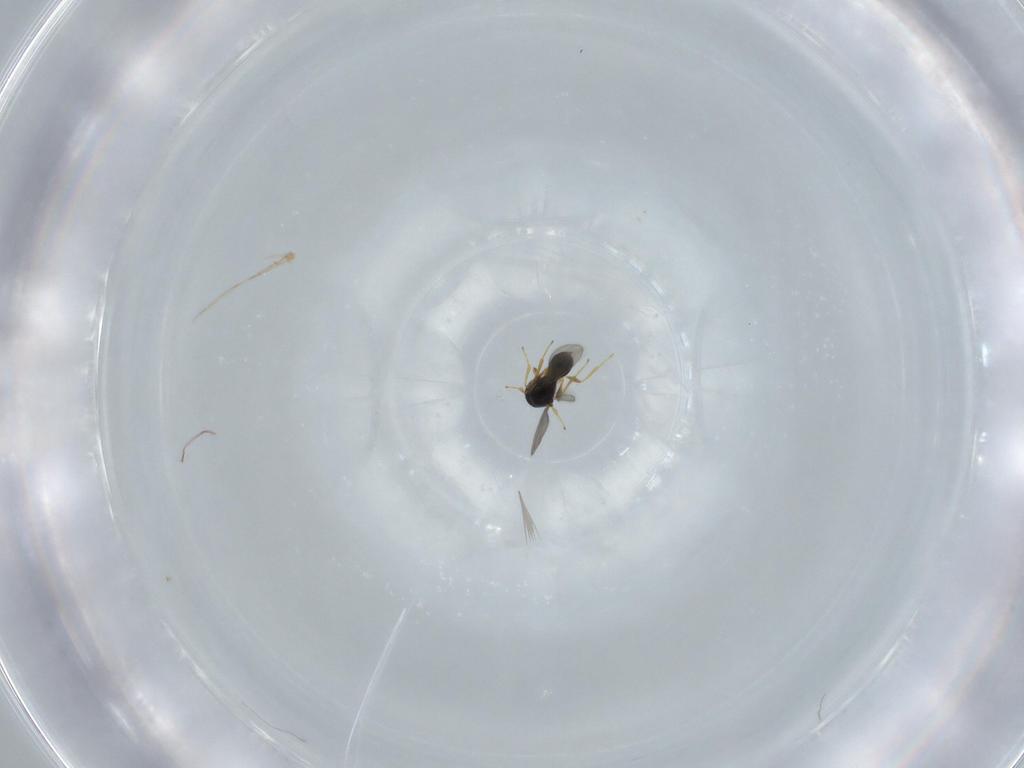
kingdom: Animalia
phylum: Arthropoda
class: Insecta
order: Hymenoptera
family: Platygastridae
